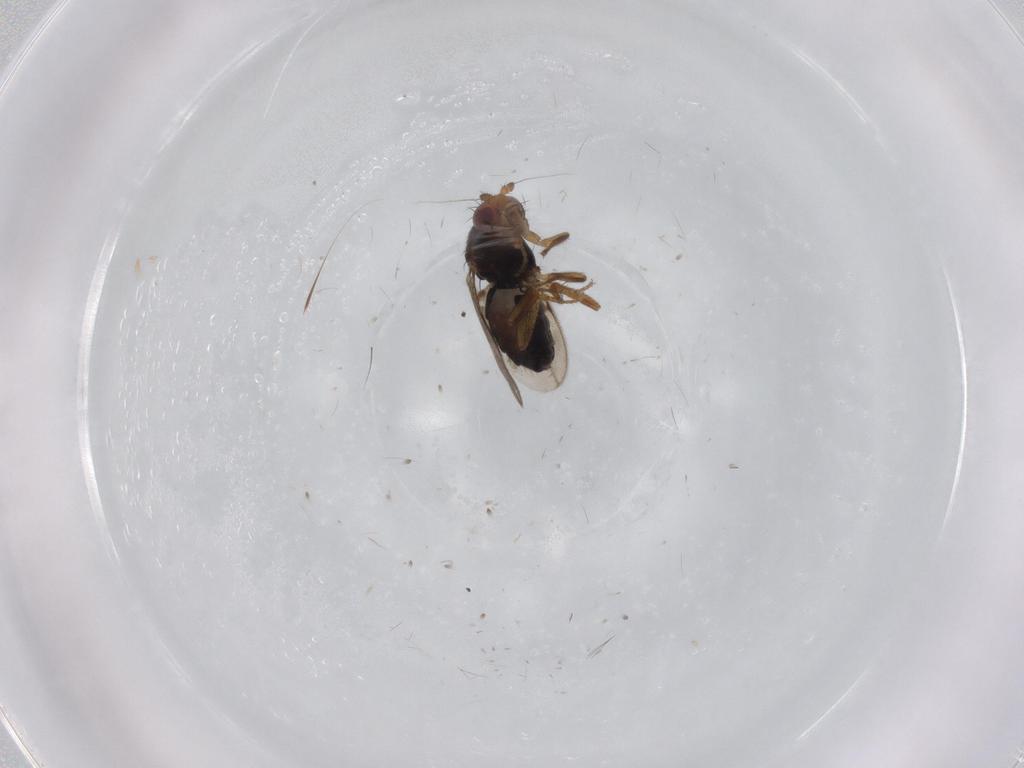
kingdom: Animalia
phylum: Arthropoda
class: Insecta
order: Diptera
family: Sphaeroceridae
